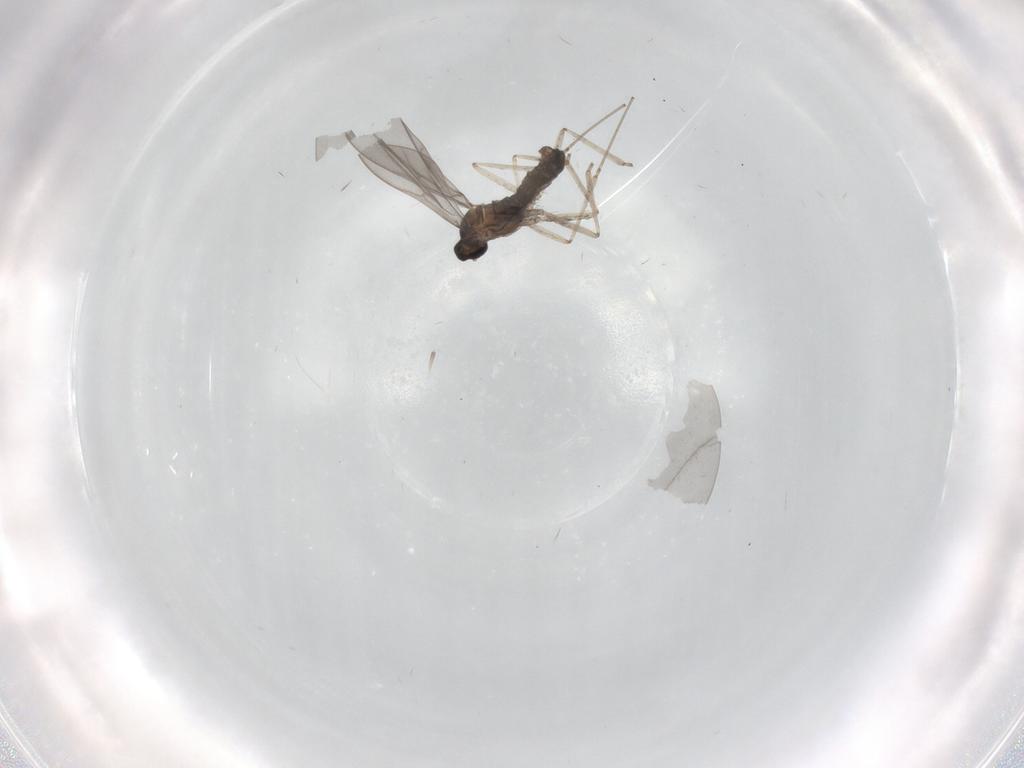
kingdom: Animalia
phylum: Arthropoda
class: Insecta
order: Diptera
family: Cecidomyiidae
